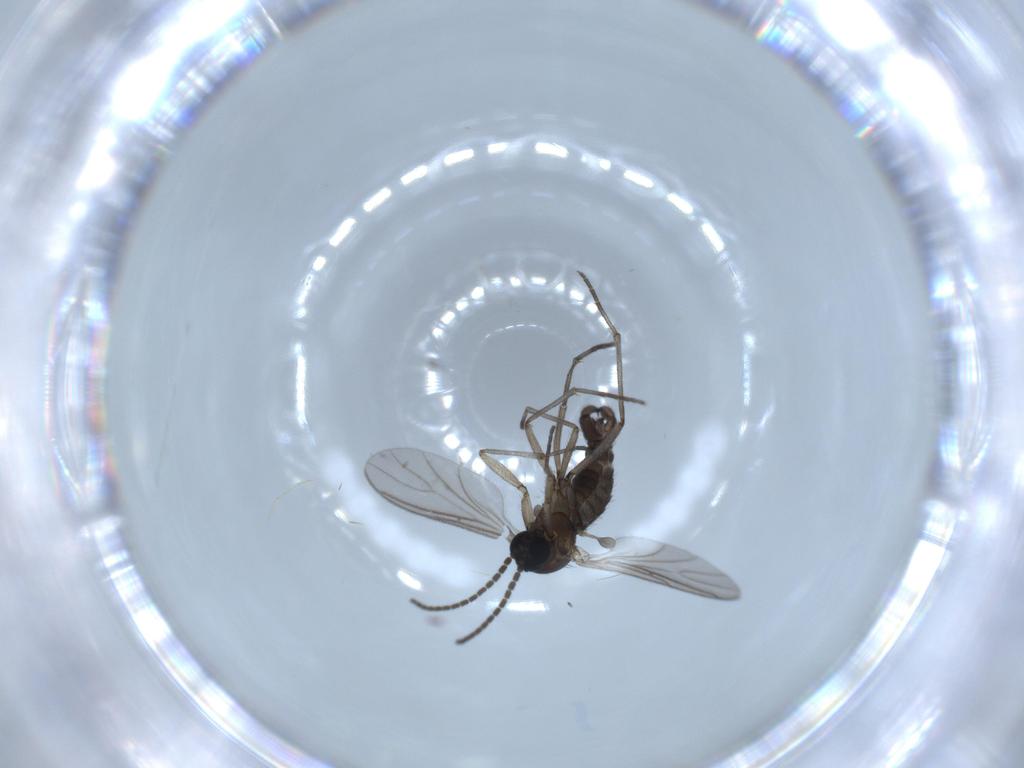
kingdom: Animalia
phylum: Arthropoda
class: Insecta
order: Diptera
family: Sciaridae
